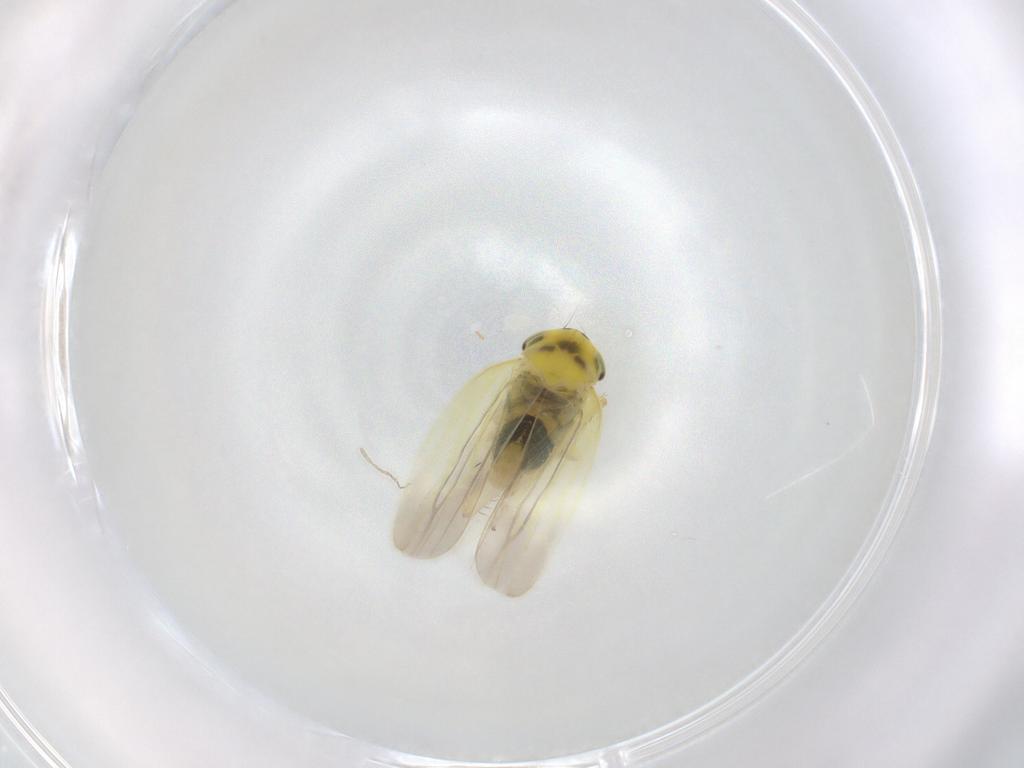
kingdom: Animalia
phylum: Arthropoda
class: Insecta
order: Hemiptera
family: Cicadellidae
